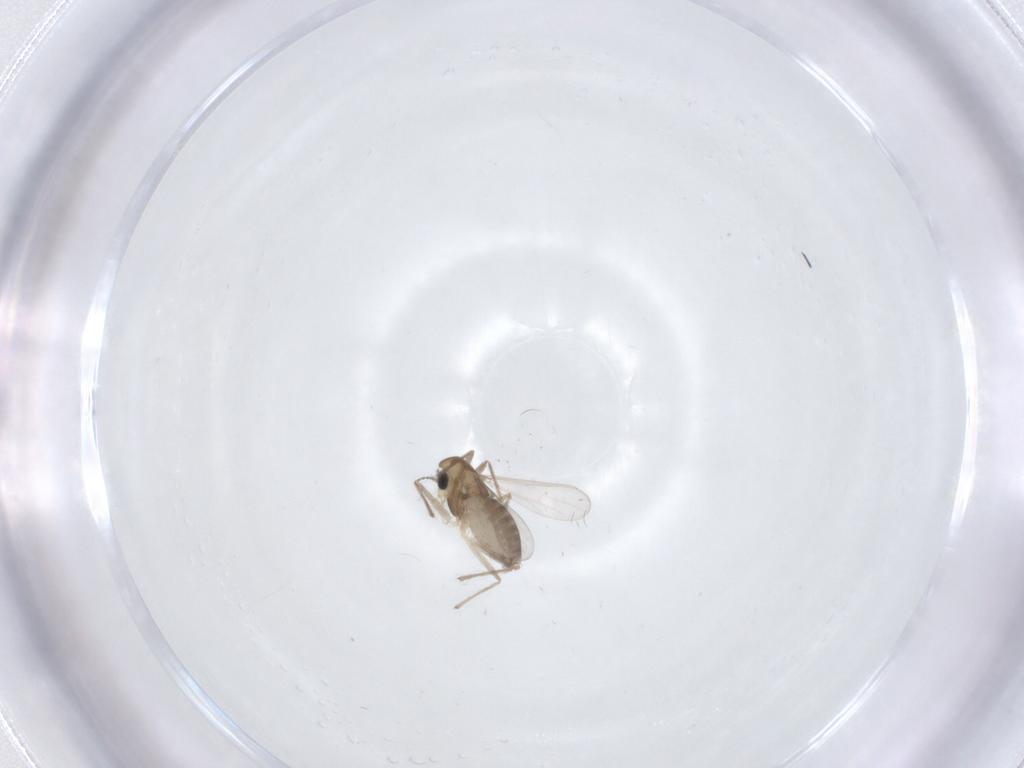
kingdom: Animalia
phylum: Arthropoda
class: Insecta
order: Diptera
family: Chironomidae
